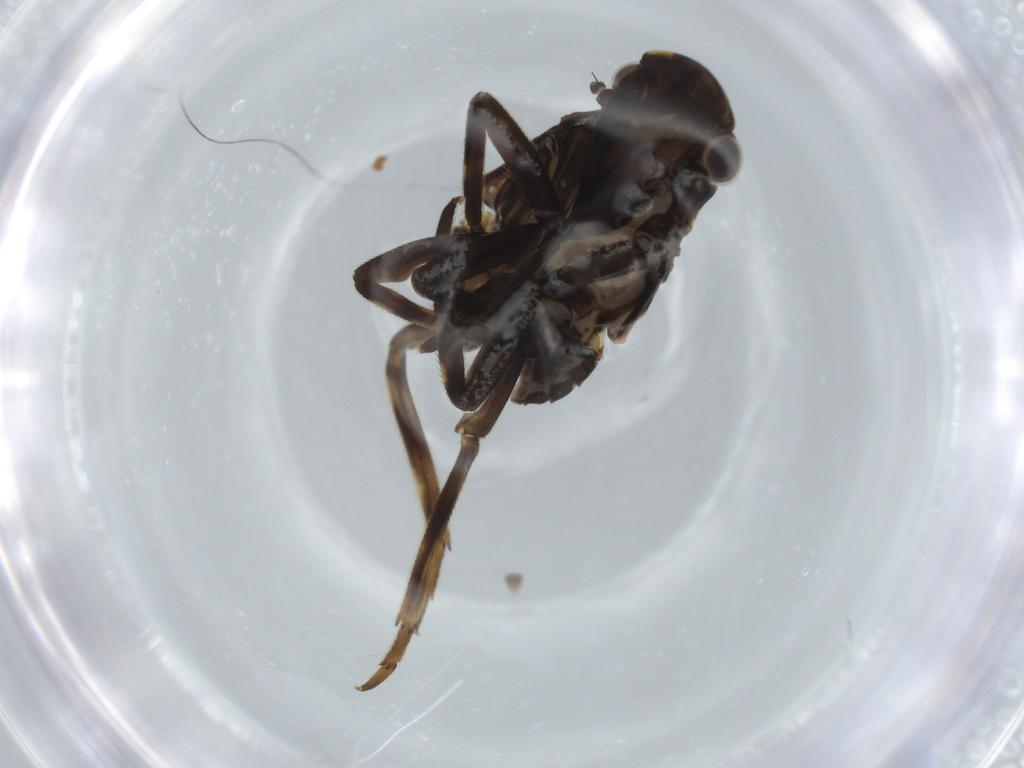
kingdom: Animalia
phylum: Arthropoda
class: Insecta
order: Hemiptera
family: Fulgoridae
